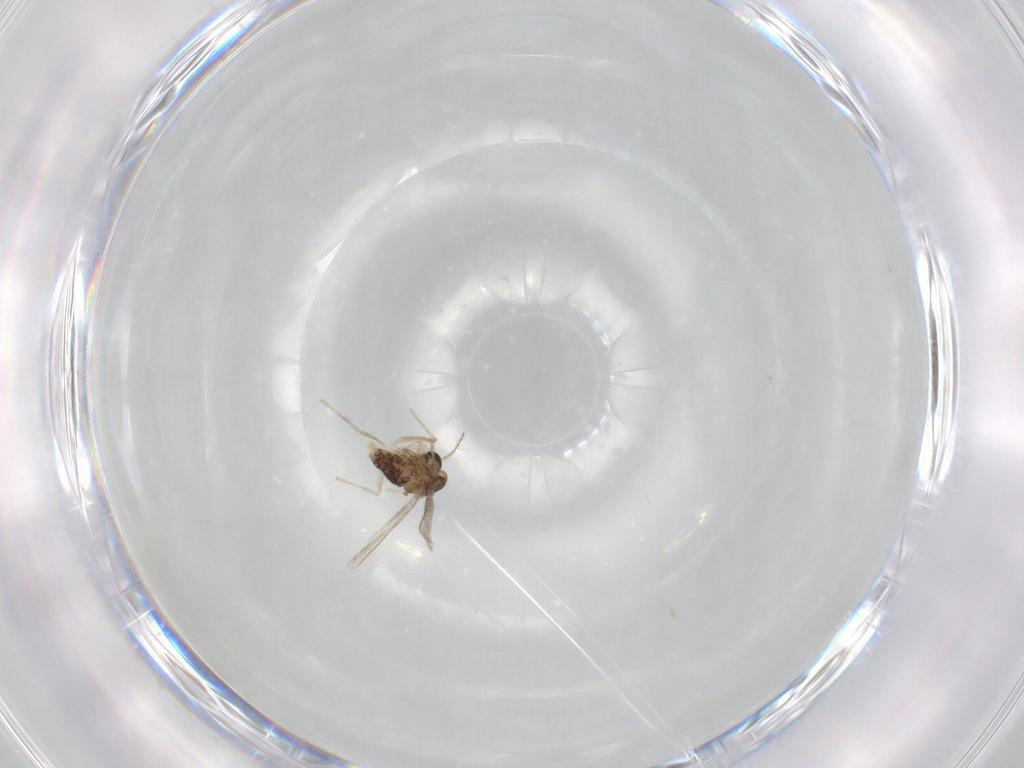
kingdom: Animalia
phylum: Arthropoda
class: Insecta
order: Diptera
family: Chironomidae
